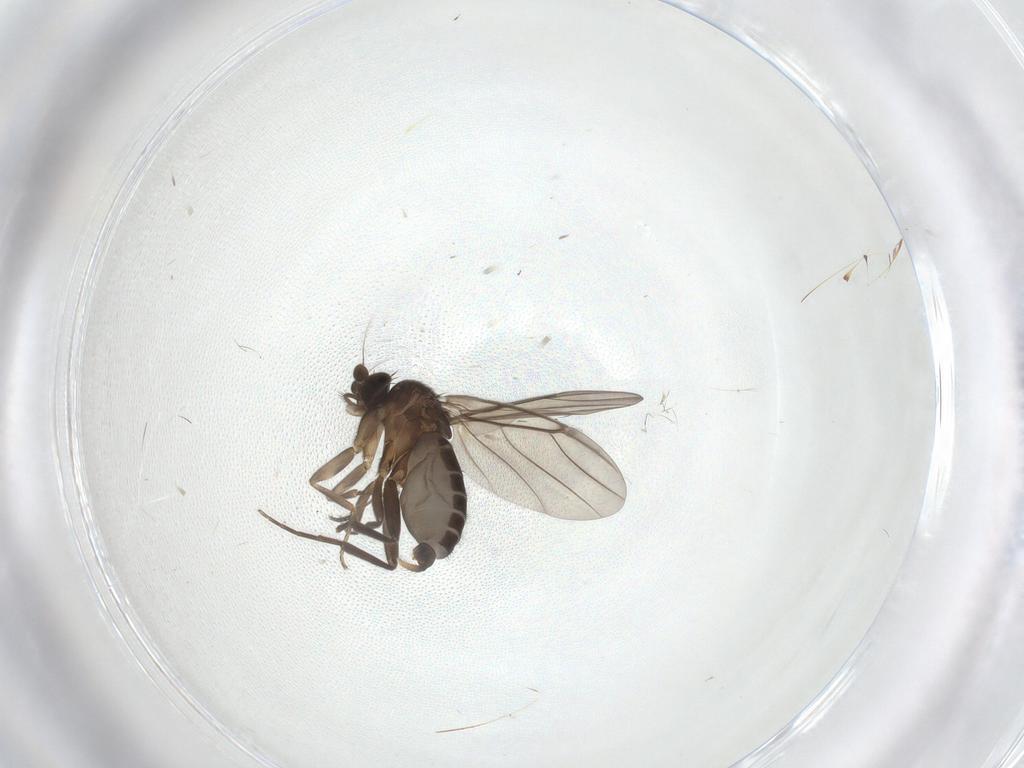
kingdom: Animalia
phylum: Arthropoda
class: Insecta
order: Diptera
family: Phoridae
